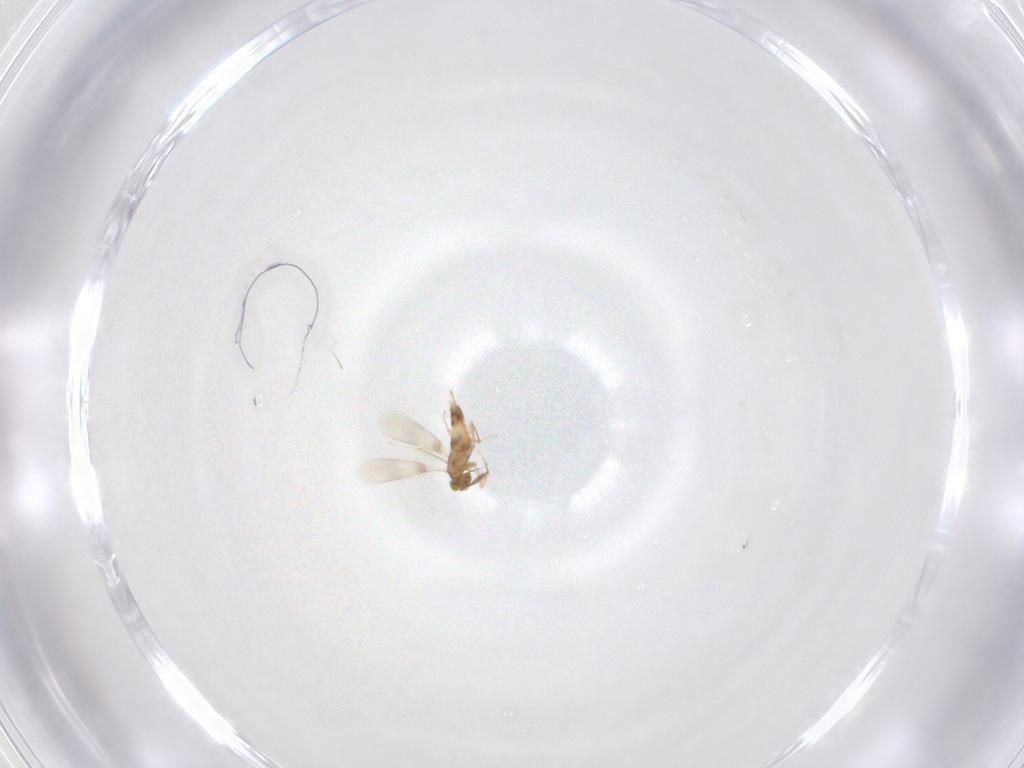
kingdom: Animalia
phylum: Arthropoda
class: Insecta
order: Hymenoptera
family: Aphelinidae
